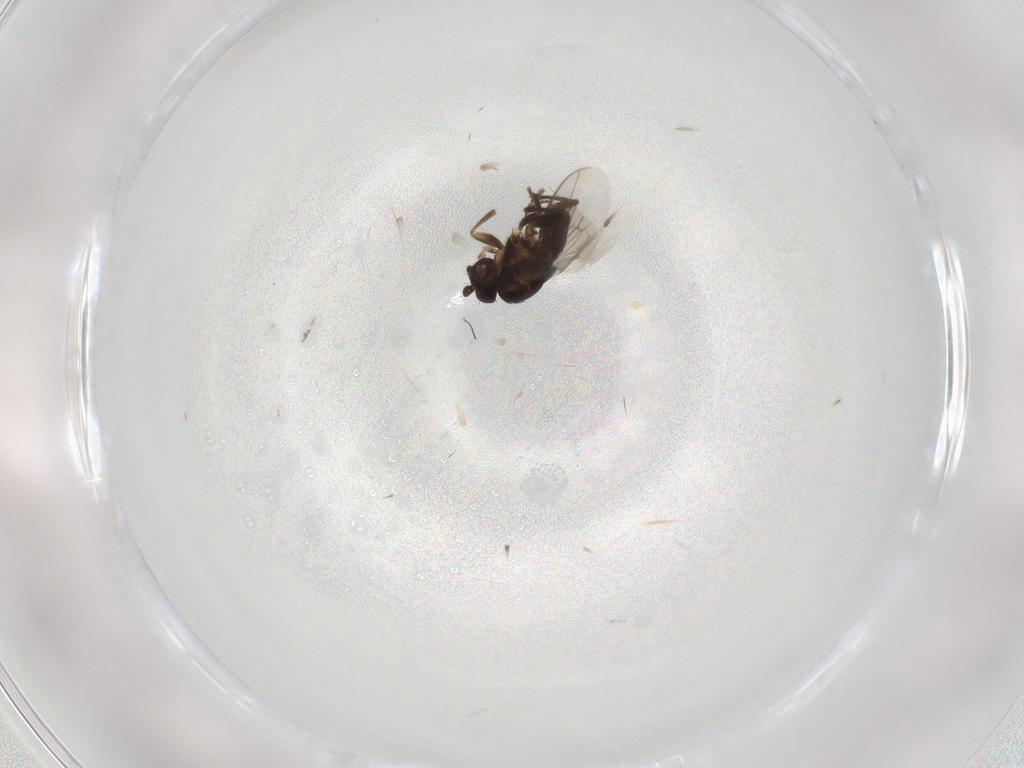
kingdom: Animalia
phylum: Arthropoda
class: Insecta
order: Diptera
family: Sphaeroceridae
